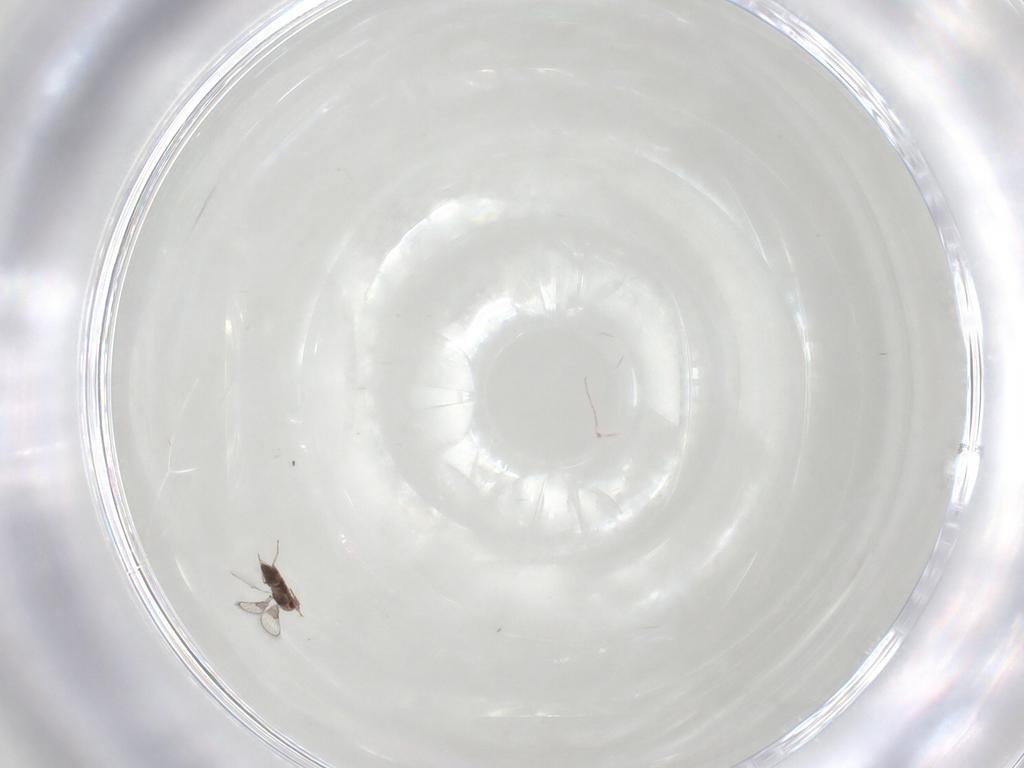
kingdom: Animalia
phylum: Arthropoda
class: Insecta
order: Hymenoptera
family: Trichogrammatidae
